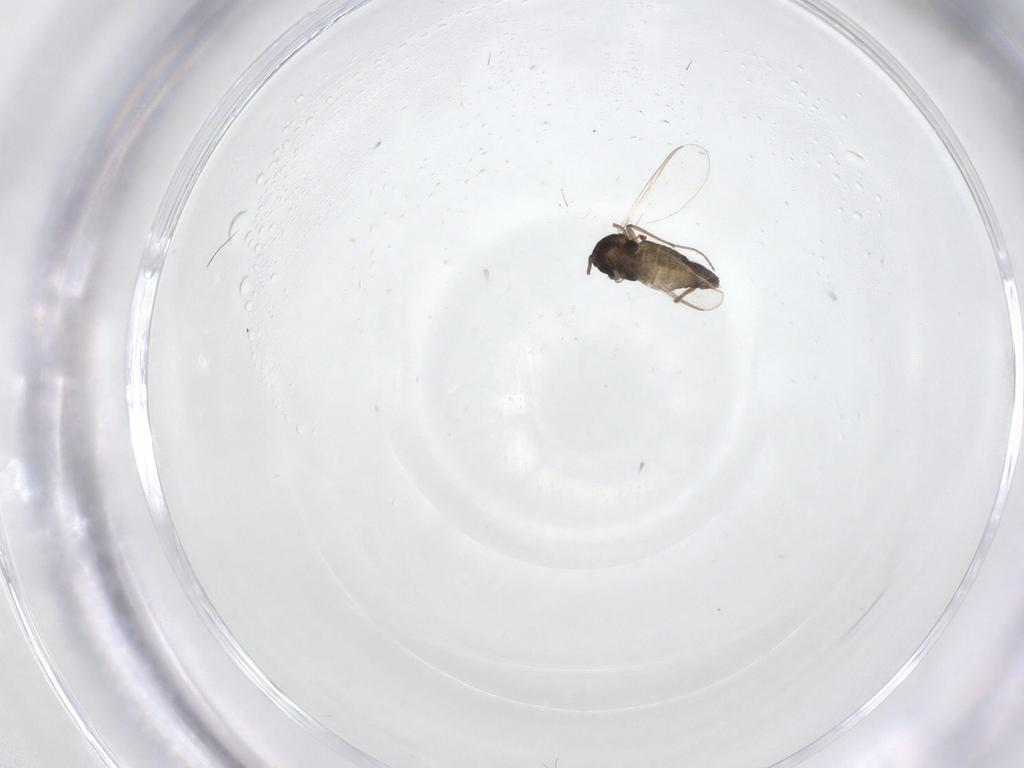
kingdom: Animalia
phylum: Arthropoda
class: Insecta
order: Diptera
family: Chironomidae
